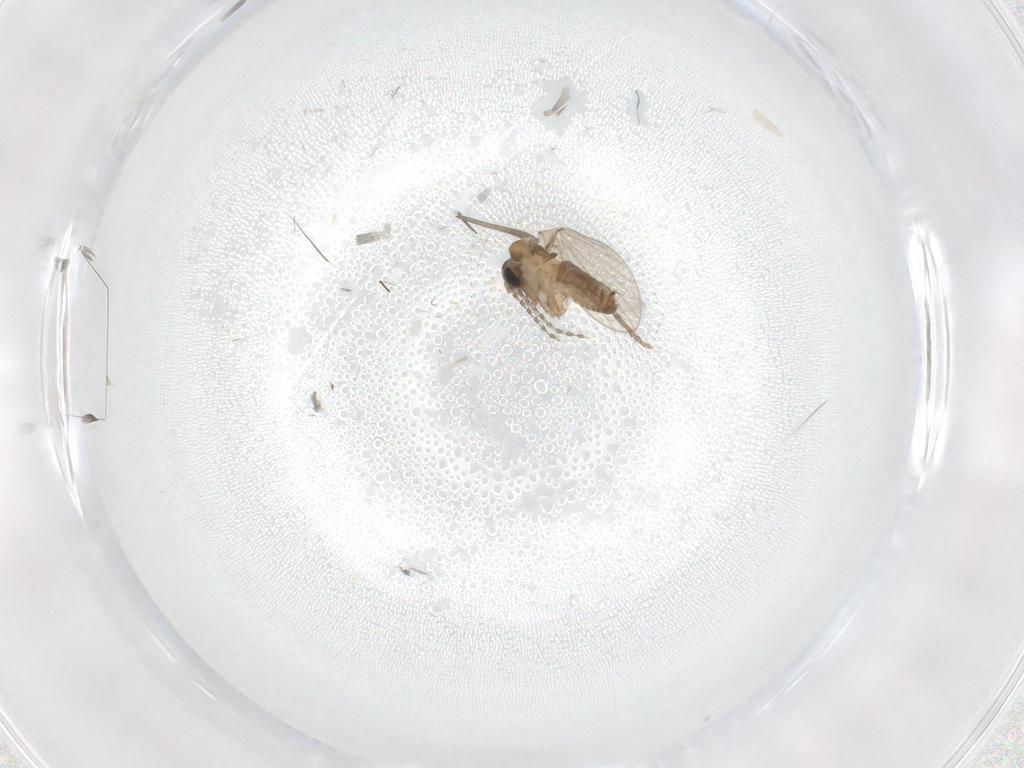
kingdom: Animalia
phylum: Arthropoda
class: Insecta
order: Diptera
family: Psychodidae
